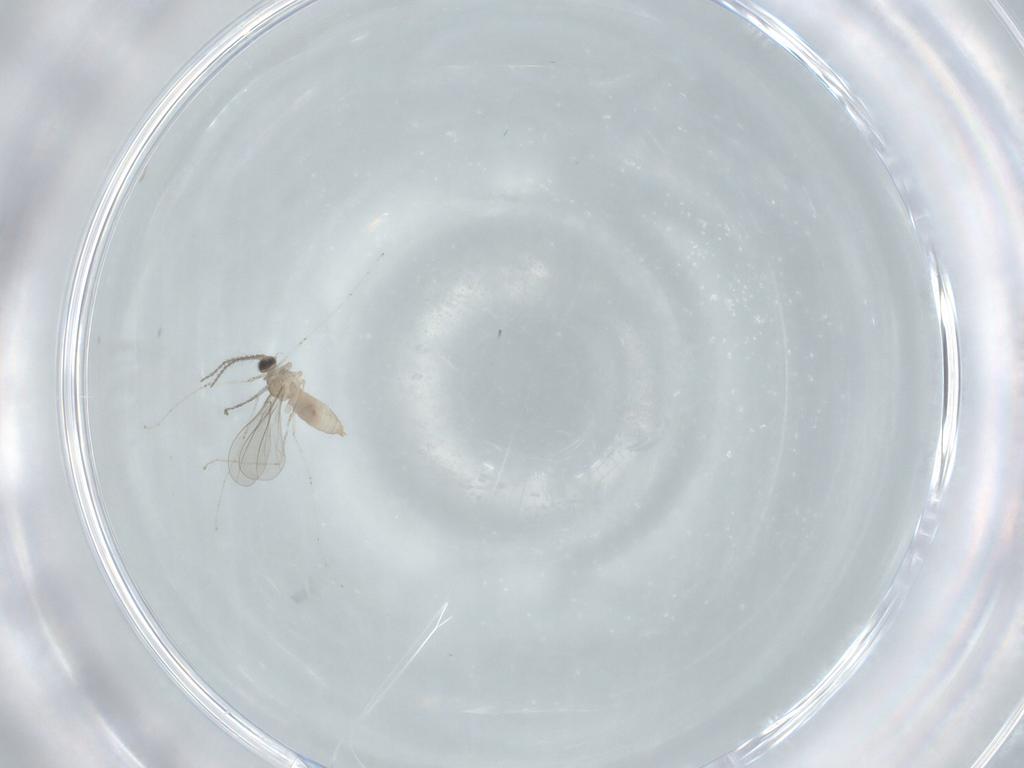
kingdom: Animalia
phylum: Arthropoda
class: Insecta
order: Diptera
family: Cecidomyiidae
